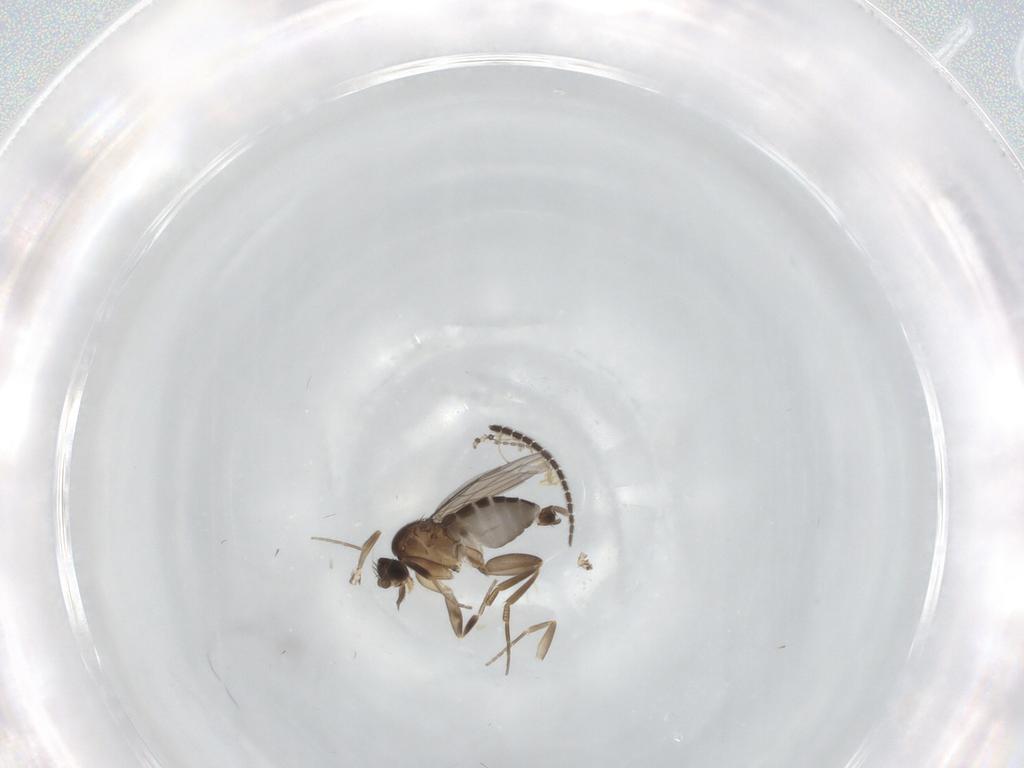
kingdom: Animalia
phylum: Arthropoda
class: Insecta
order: Diptera
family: Phoridae
